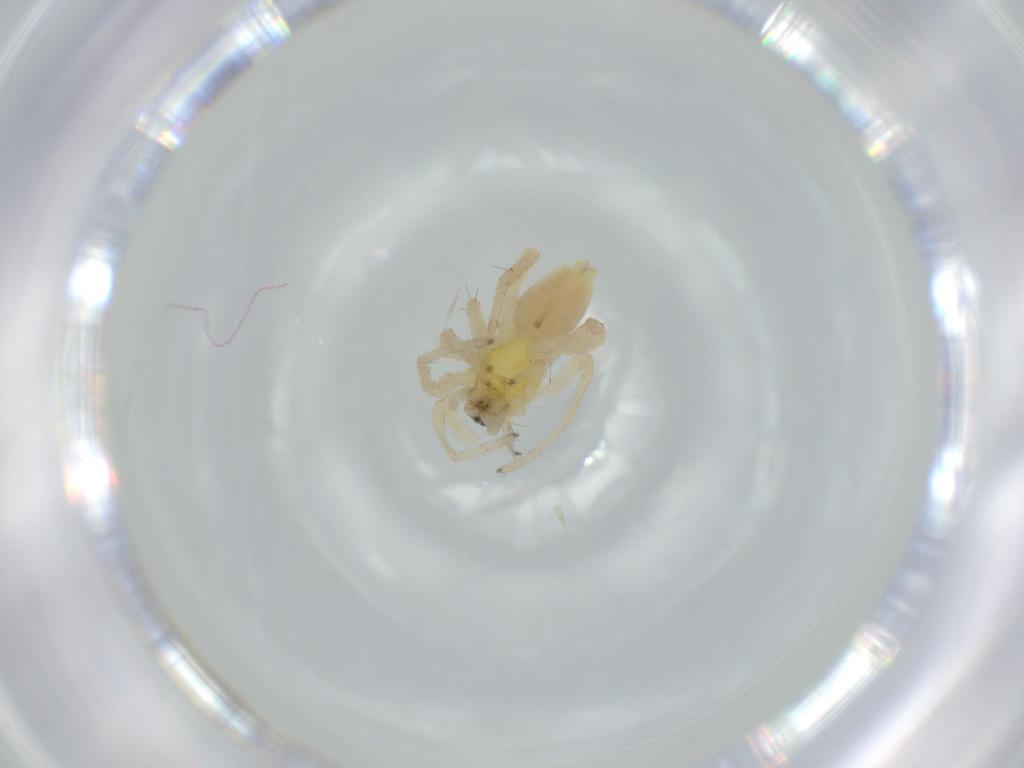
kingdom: Animalia
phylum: Arthropoda
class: Arachnida
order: Araneae
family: Anyphaenidae
